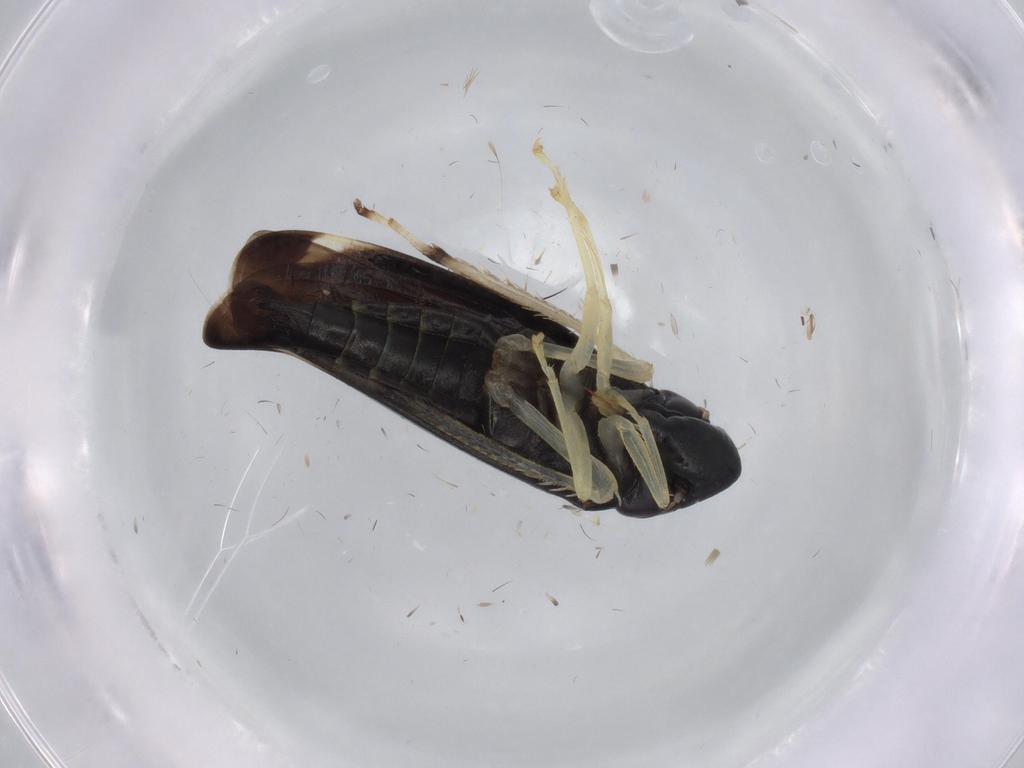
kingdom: Animalia
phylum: Arthropoda
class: Insecta
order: Hemiptera
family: Cicadellidae
